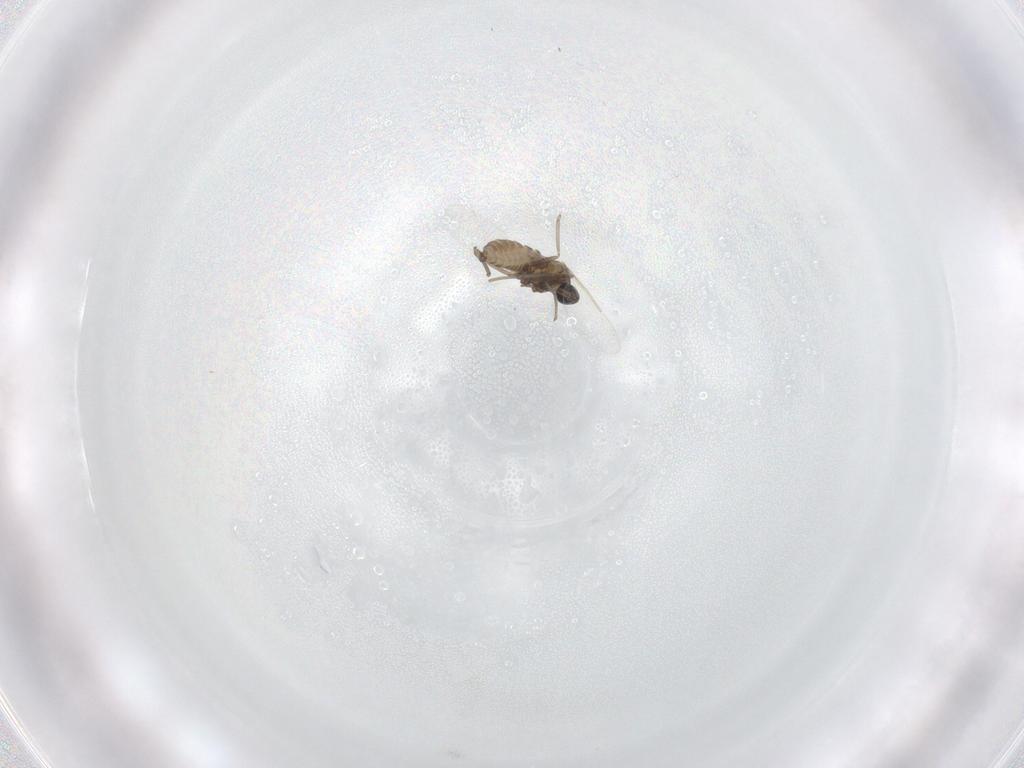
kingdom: Animalia
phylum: Arthropoda
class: Insecta
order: Diptera
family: Cecidomyiidae
